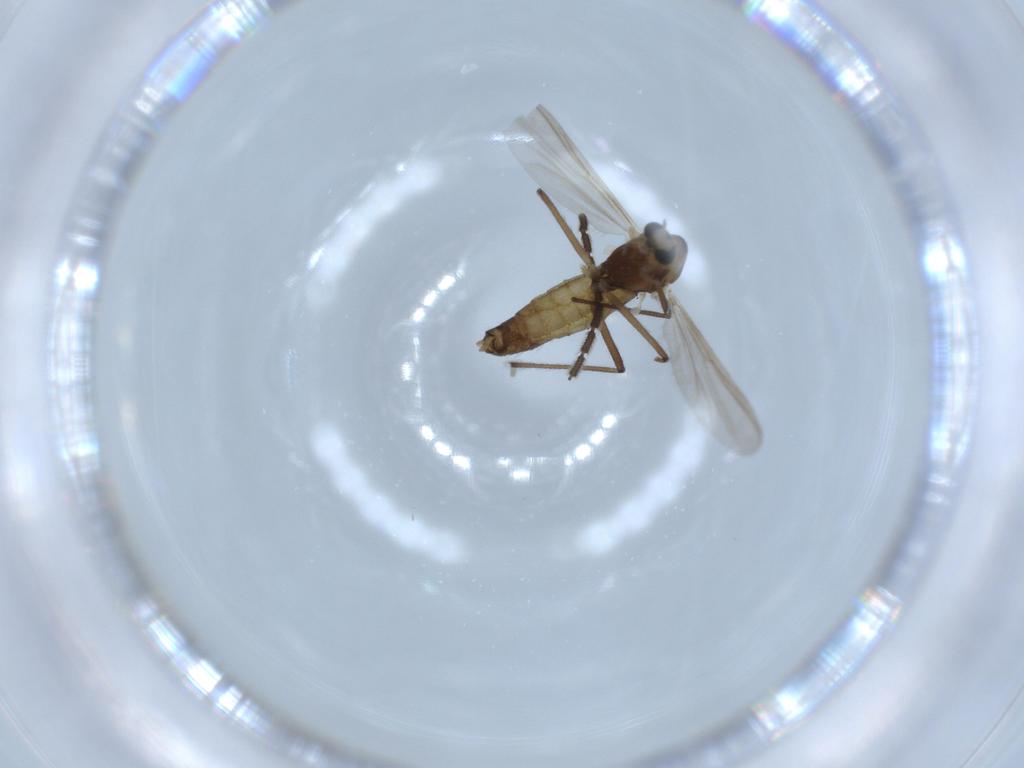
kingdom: Animalia
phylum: Arthropoda
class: Insecta
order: Diptera
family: Chironomidae
